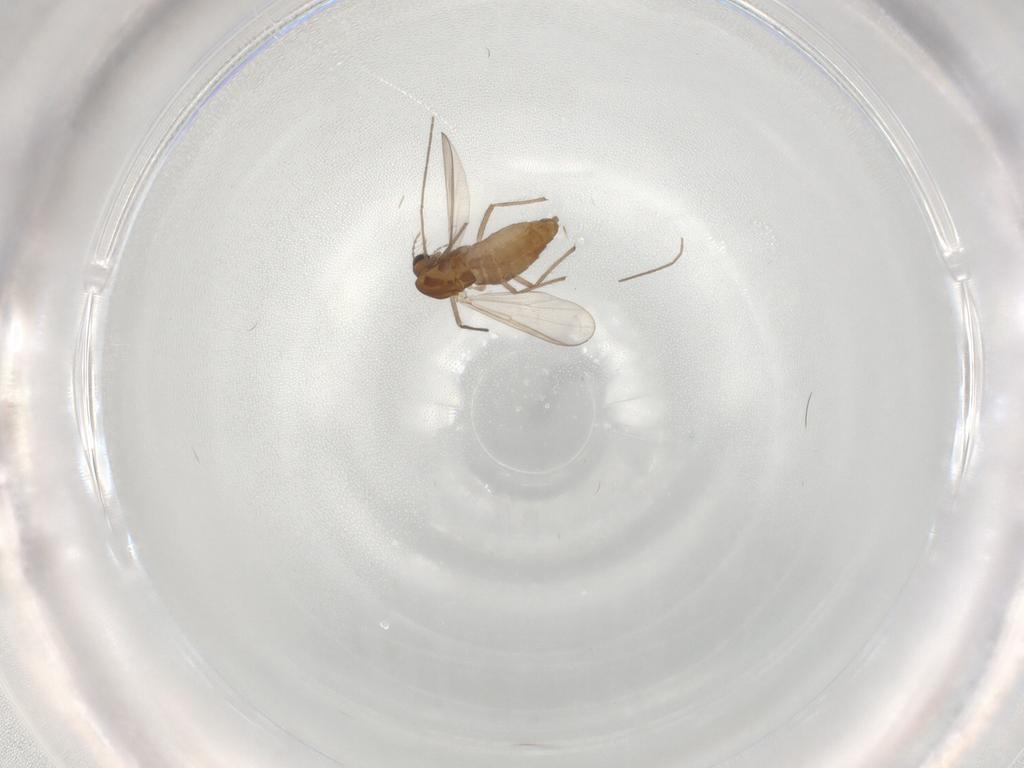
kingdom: Animalia
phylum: Arthropoda
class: Insecta
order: Diptera
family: Chironomidae
